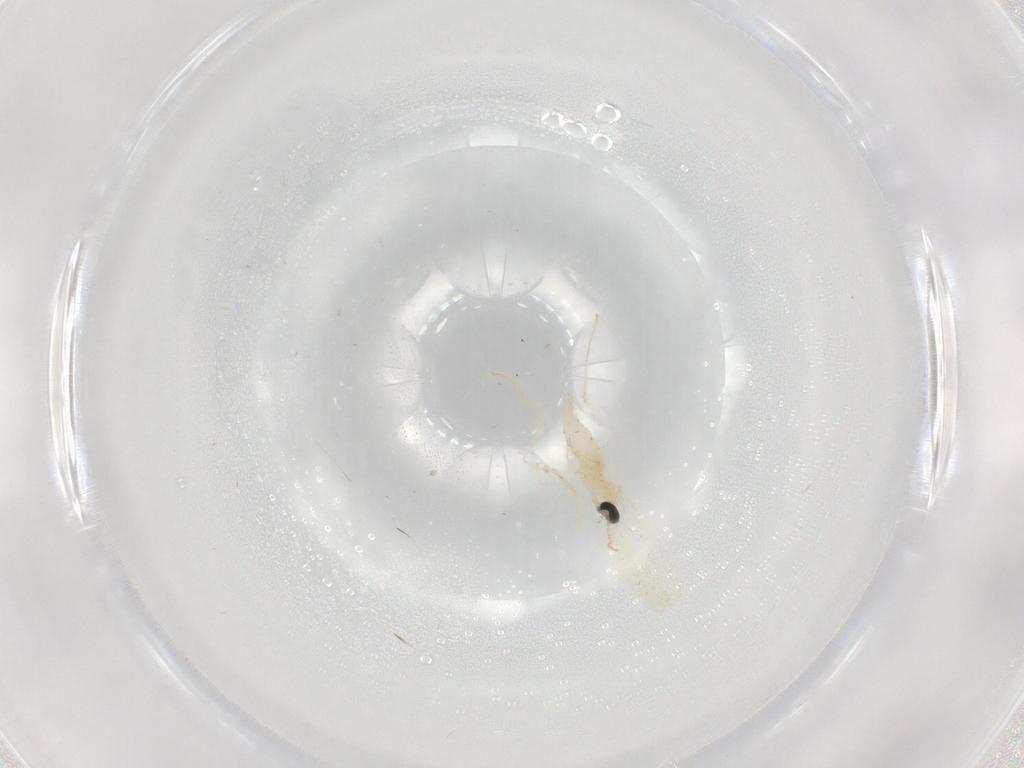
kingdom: Animalia
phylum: Arthropoda
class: Insecta
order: Diptera
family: Cecidomyiidae
